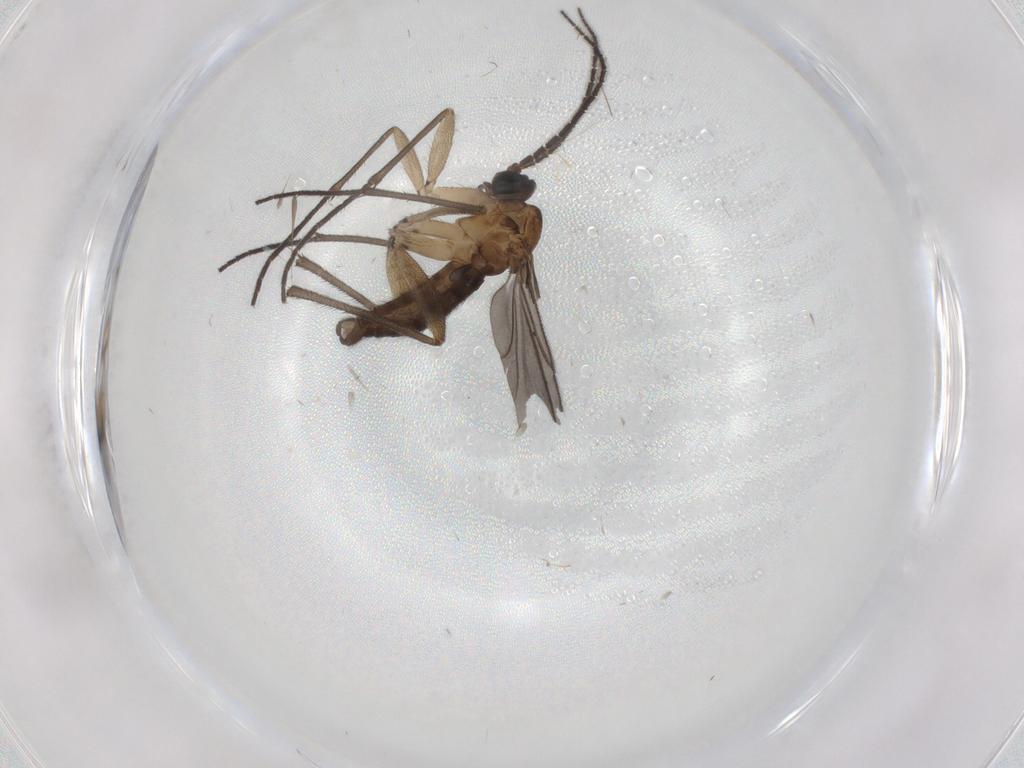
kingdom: Animalia
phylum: Arthropoda
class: Insecta
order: Diptera
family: Sciaridae
